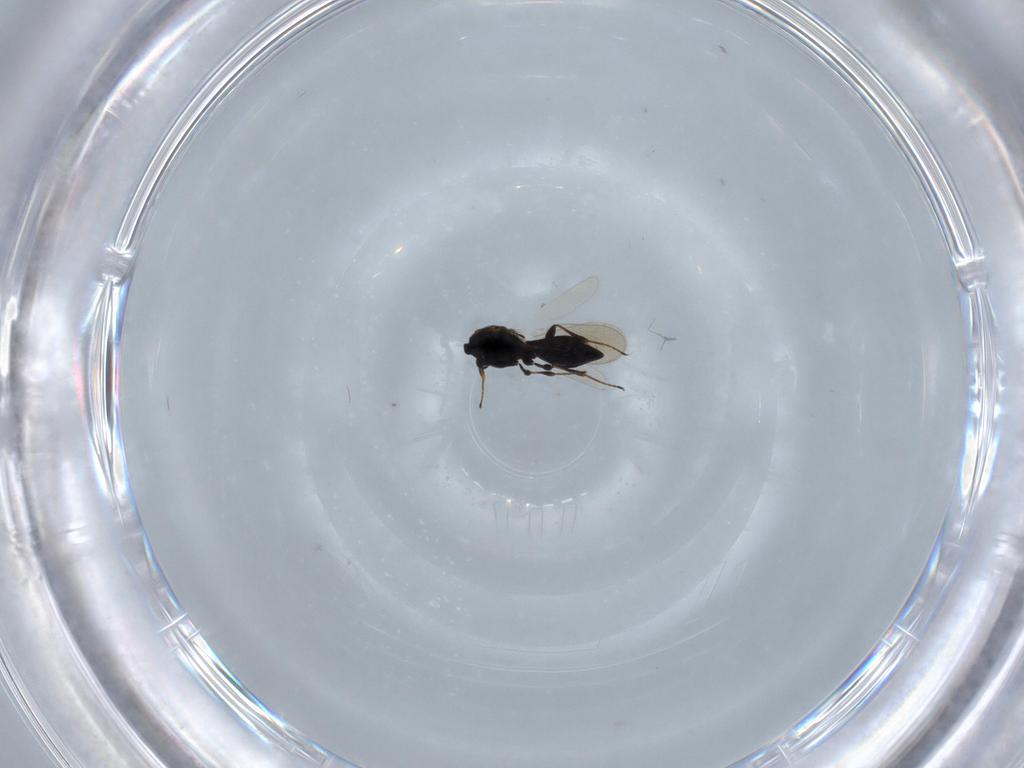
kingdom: Animalia
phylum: Arthropoda
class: Insecta
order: Hymenoptera
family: Platygastridae
